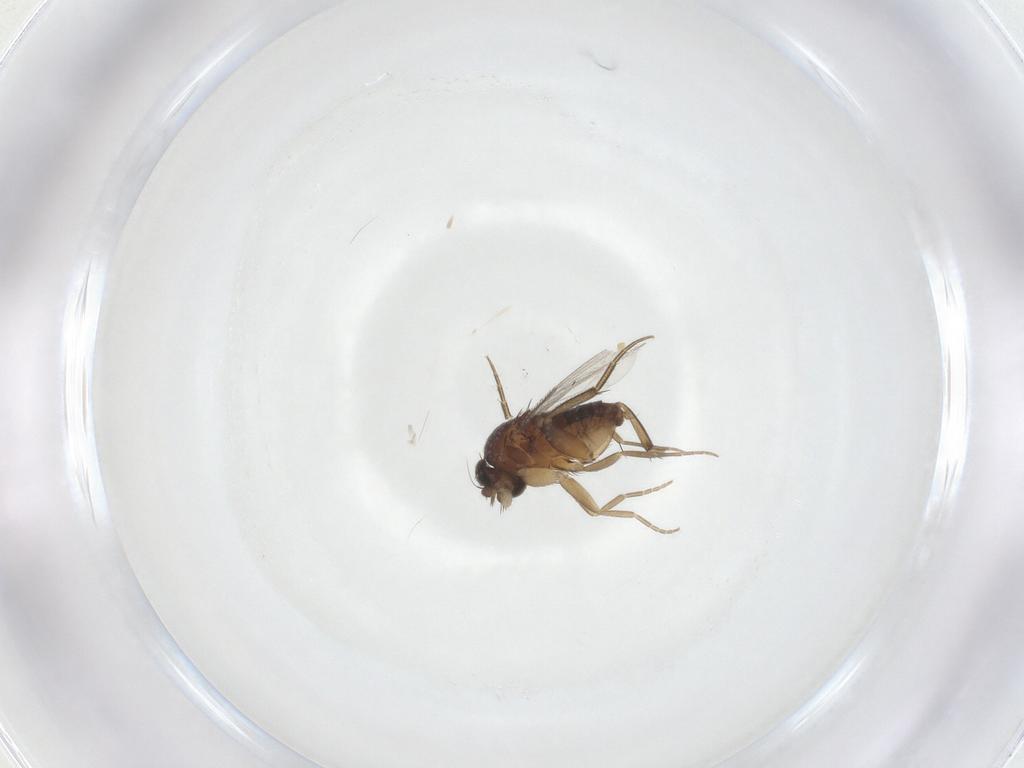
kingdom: Animalia
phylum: Arthropoda
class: Insecta
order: Diptera
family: Phoridae
